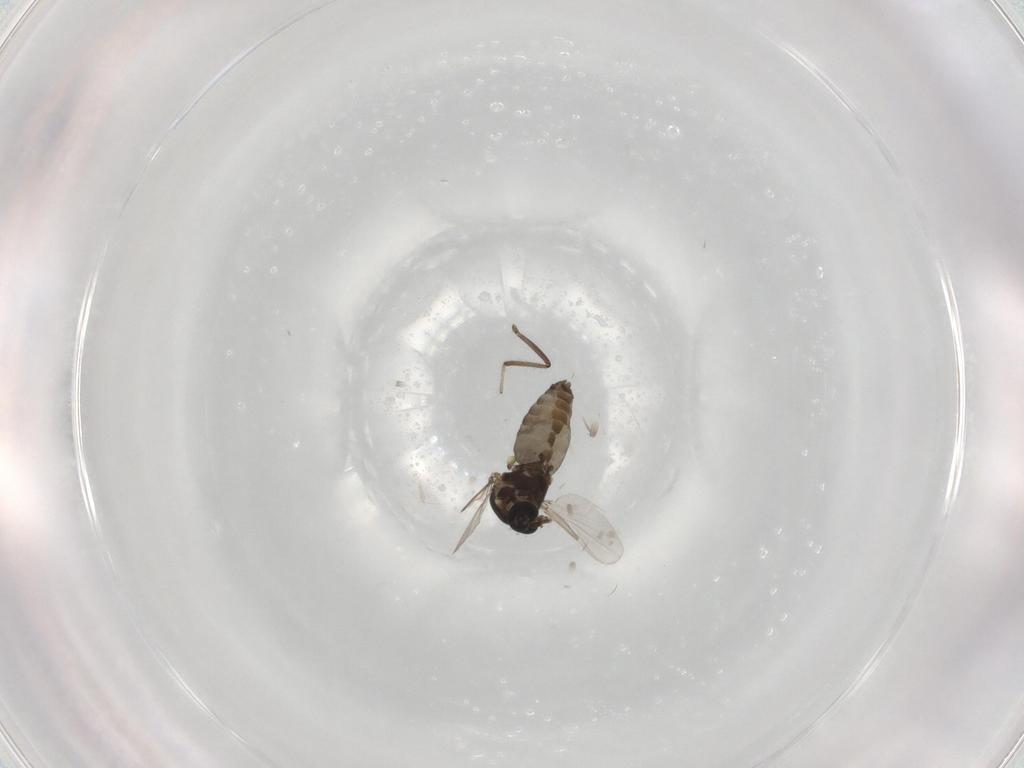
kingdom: Animalia
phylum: Arthropoda
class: Insecta
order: Diptera
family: Ceratopogonidae
